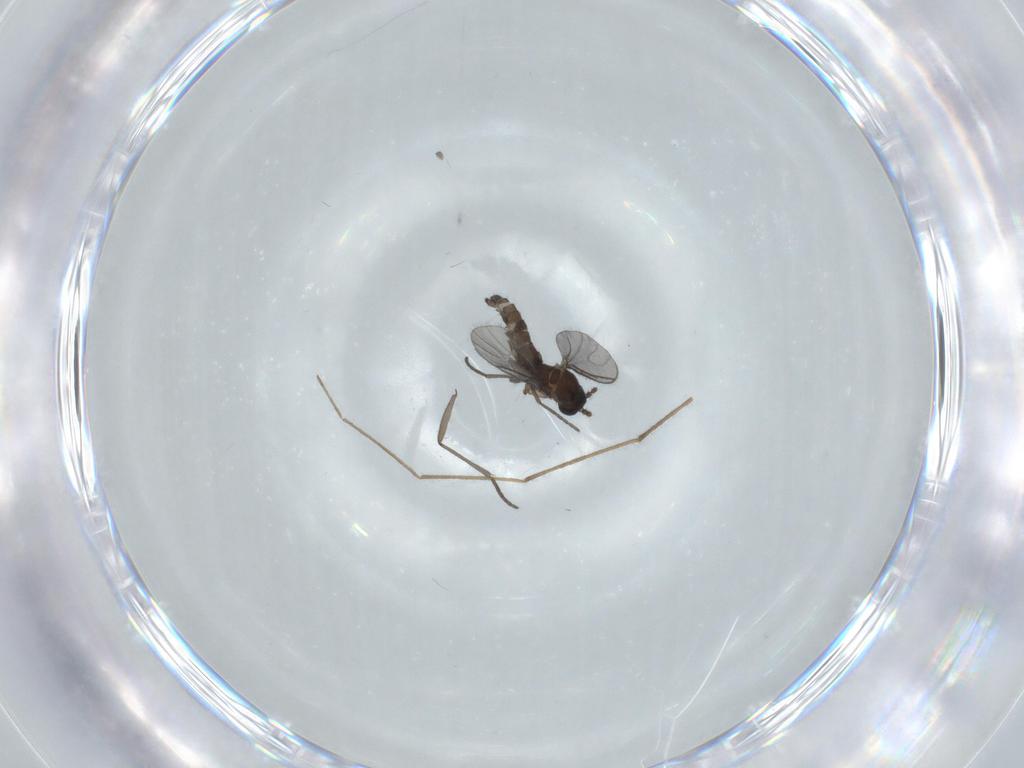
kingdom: Animalia
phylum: Arthropoda
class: Insecta
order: Diptera
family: Chironomidae
